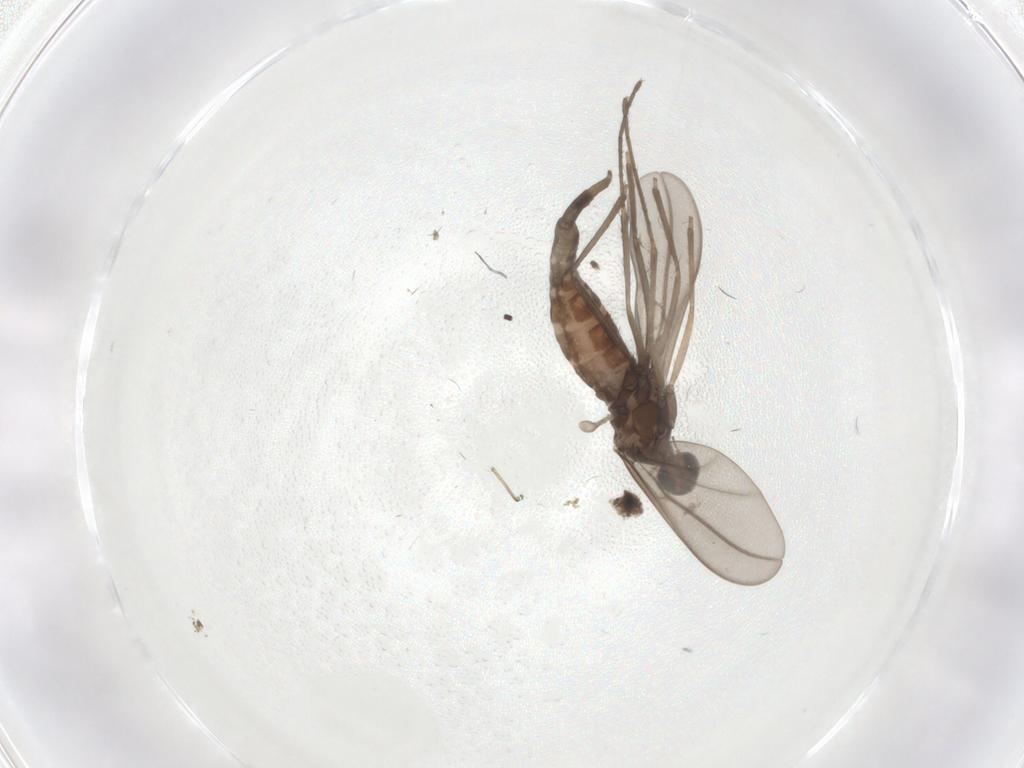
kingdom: Animalia
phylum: Arthropoda
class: Insecta
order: Diptera
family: Cecidomyiidae
